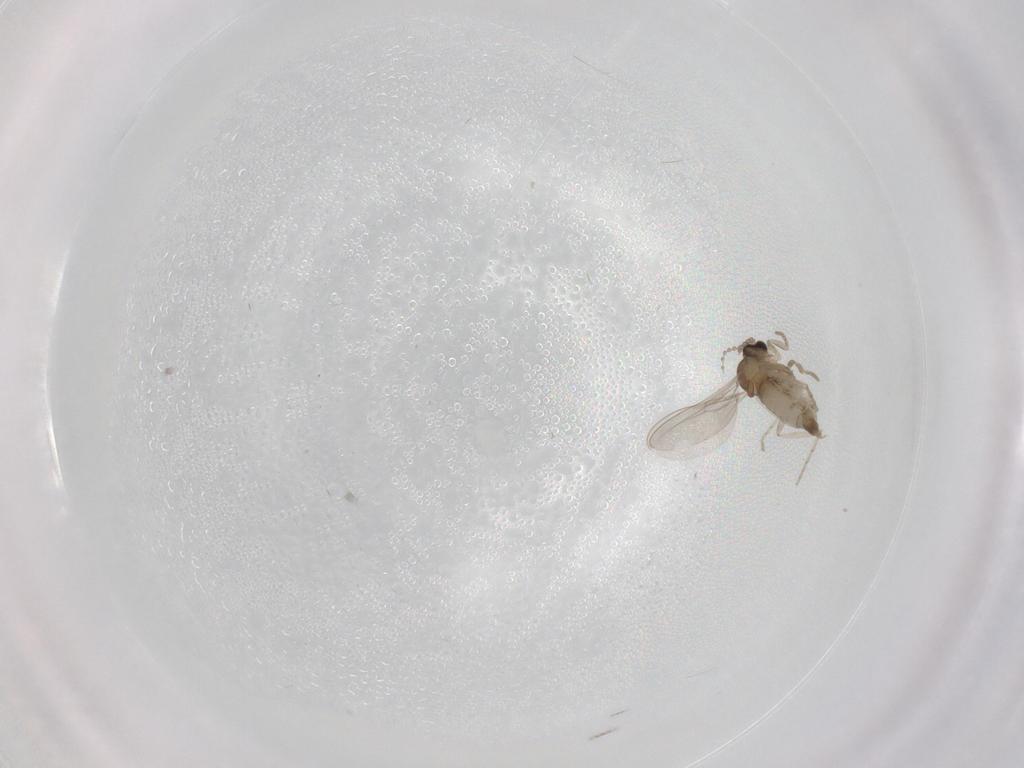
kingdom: Animalia
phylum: Arthropoda
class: Insecta
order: Diptera
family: Cecidomyiidae
